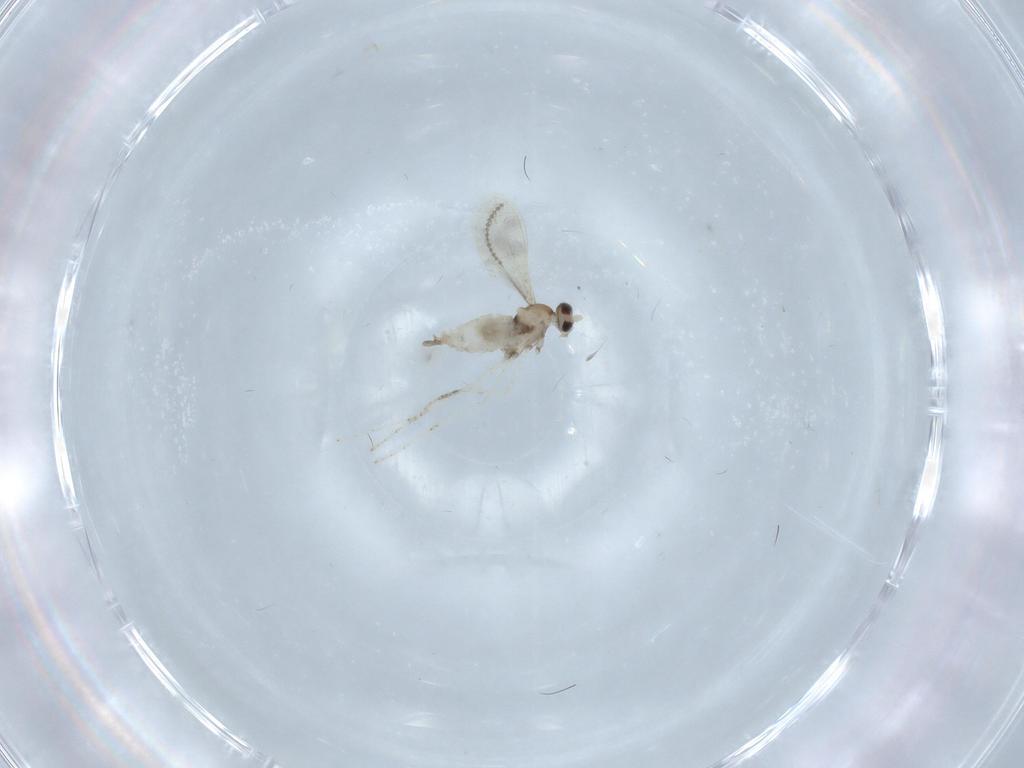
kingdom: Animalia
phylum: Arthropoda
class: Insecta
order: Diptera
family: Cecidomyiidae
